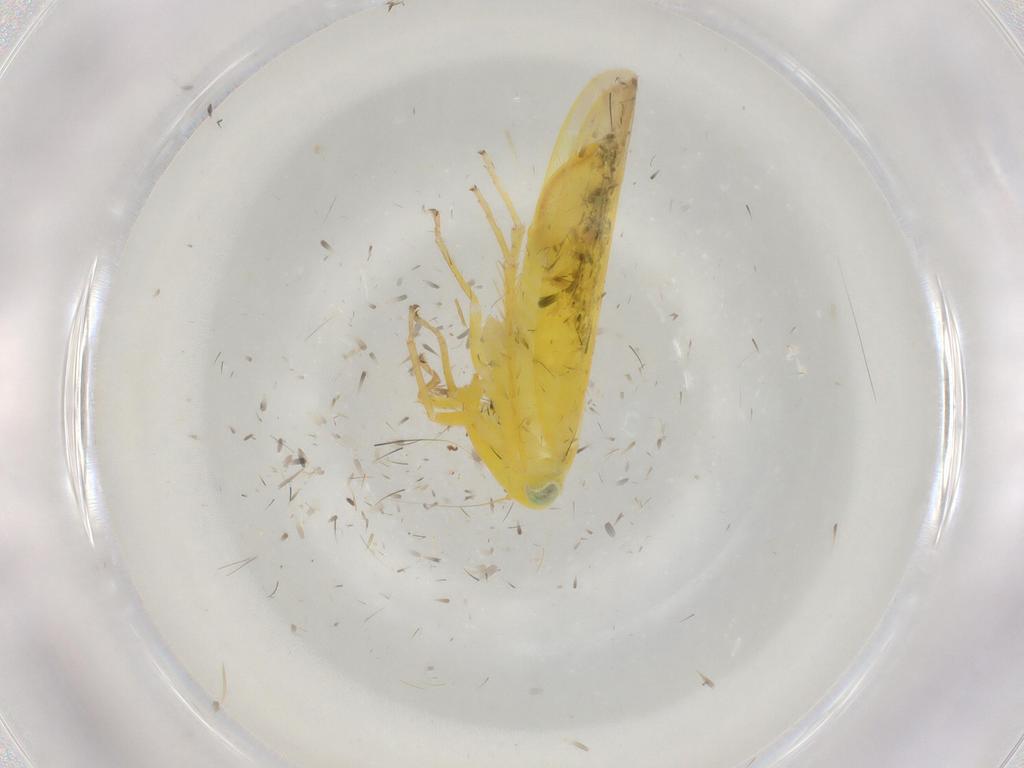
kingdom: Animalia
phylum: Arthropoda
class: Insecta
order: Hemiptera
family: Cicadellidae
